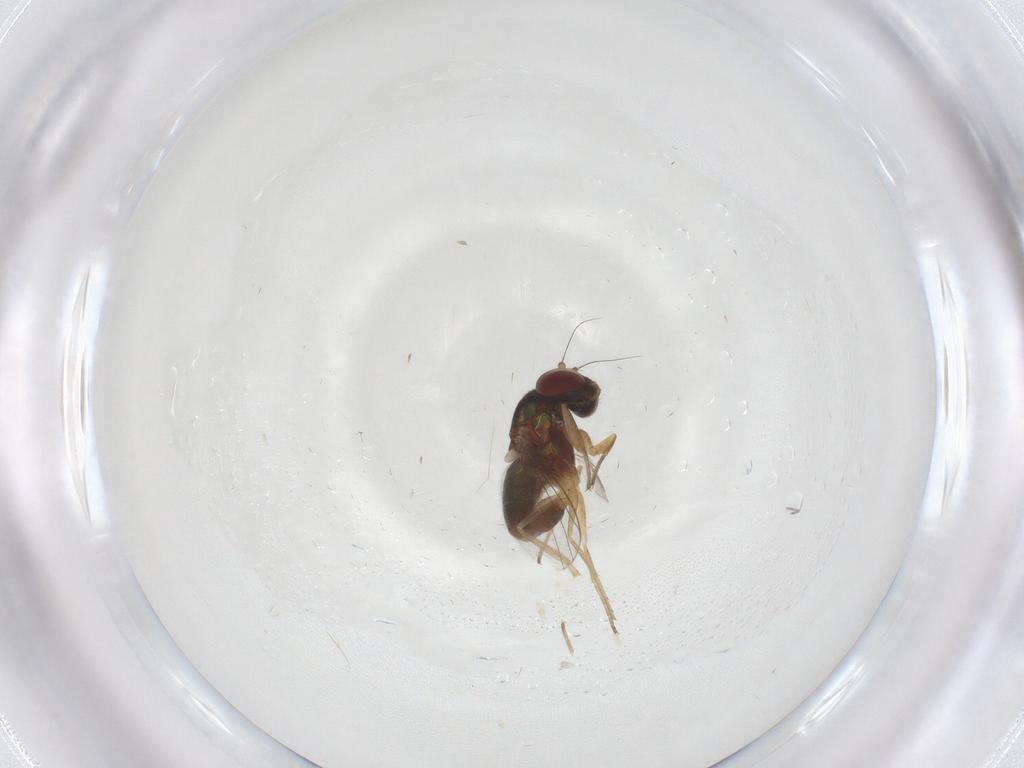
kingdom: Animalia
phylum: Arthropoda
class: Insecta
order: Diptera
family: Dolichopodidae
